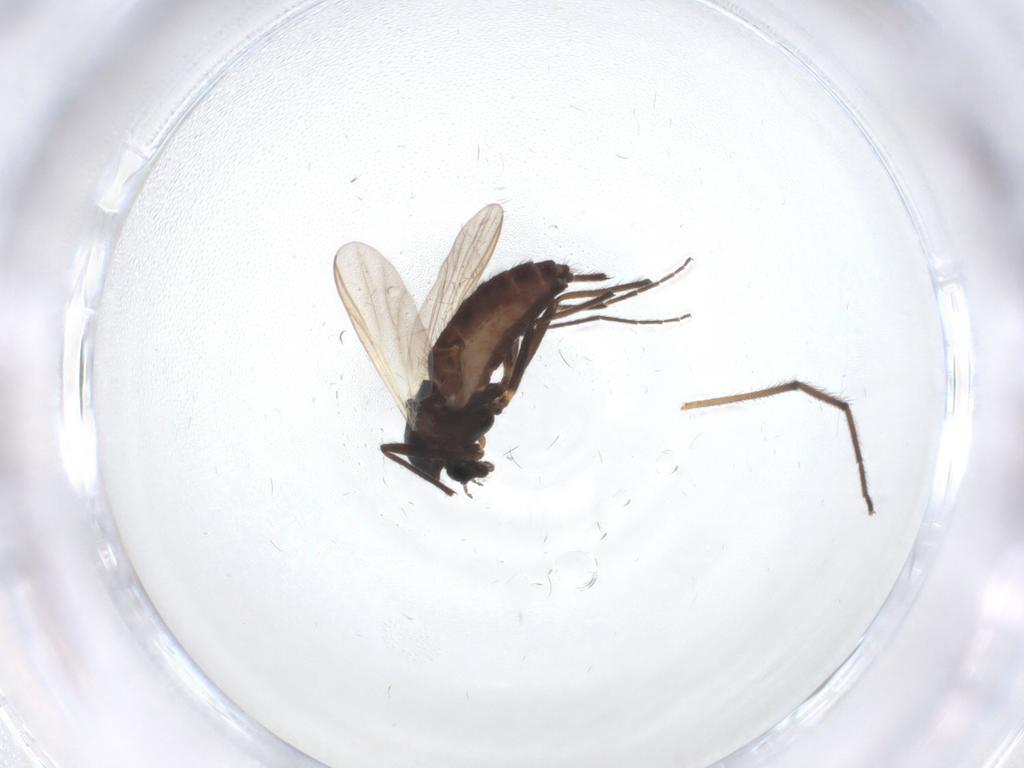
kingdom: Animalia
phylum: Arthropoda
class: Insecta
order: Diptera
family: Chironomidae
